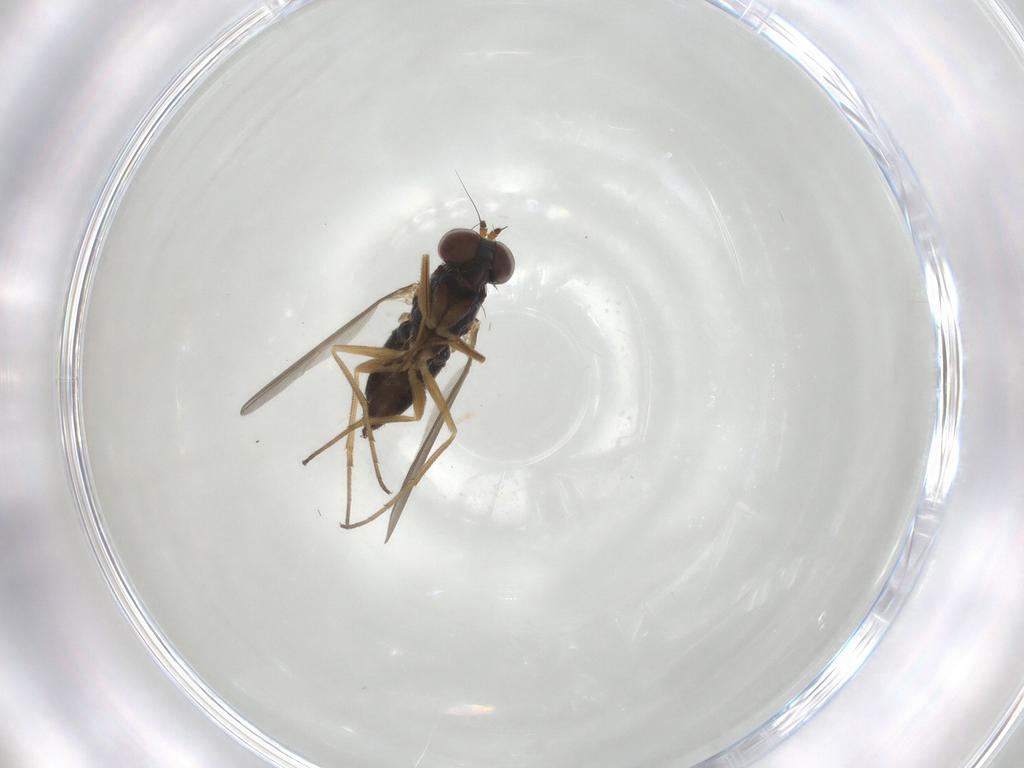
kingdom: Animalia
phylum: Arthropoda
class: Insecta
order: Diptera
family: Dolichopodidae
